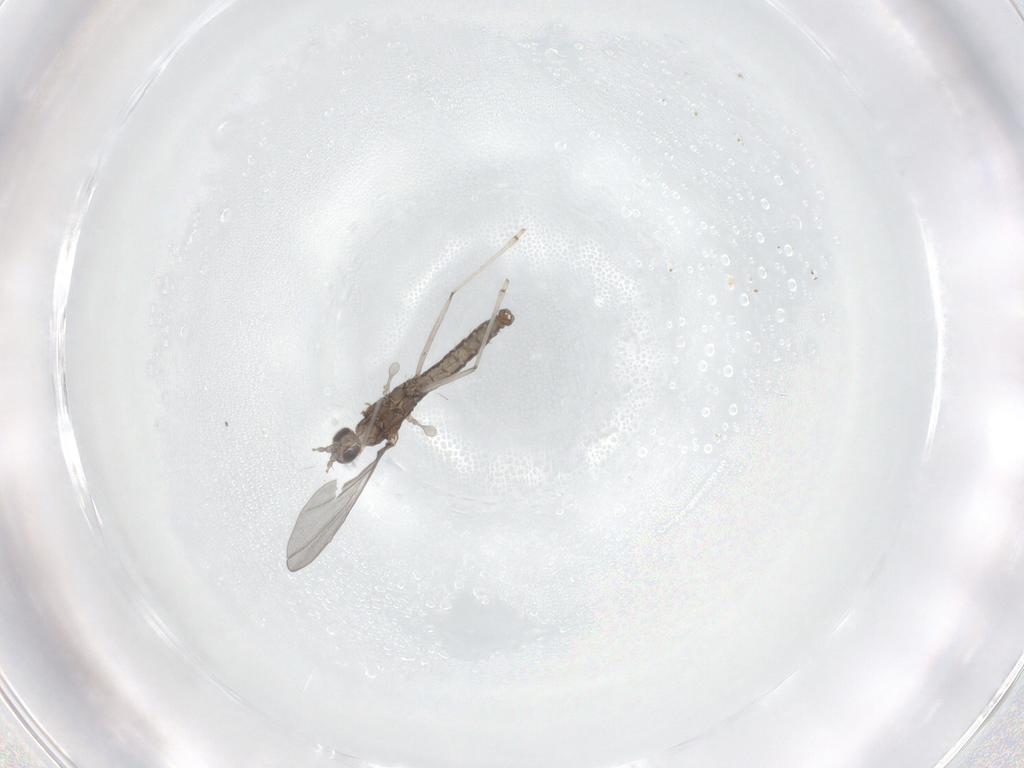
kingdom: Animalia
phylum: Arthropoda
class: Insecta
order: Diptera
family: Cecidomyiidae
